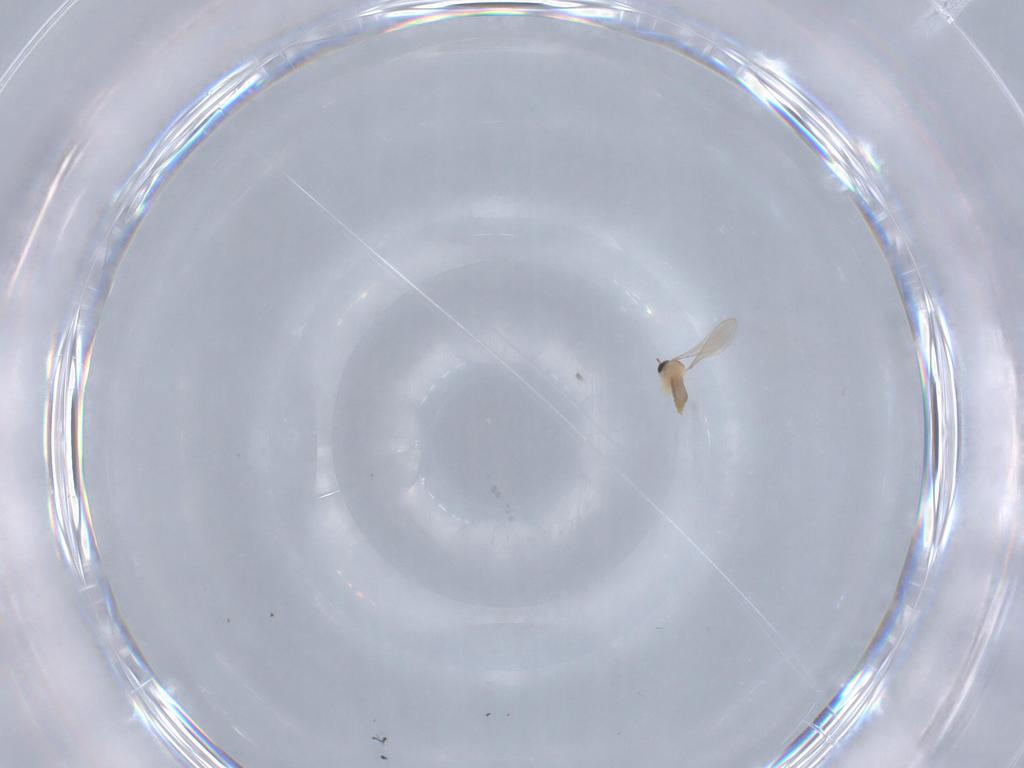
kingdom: Animalia
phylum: Arthropoda
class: Insecta
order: Diptera
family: Chironomidae
